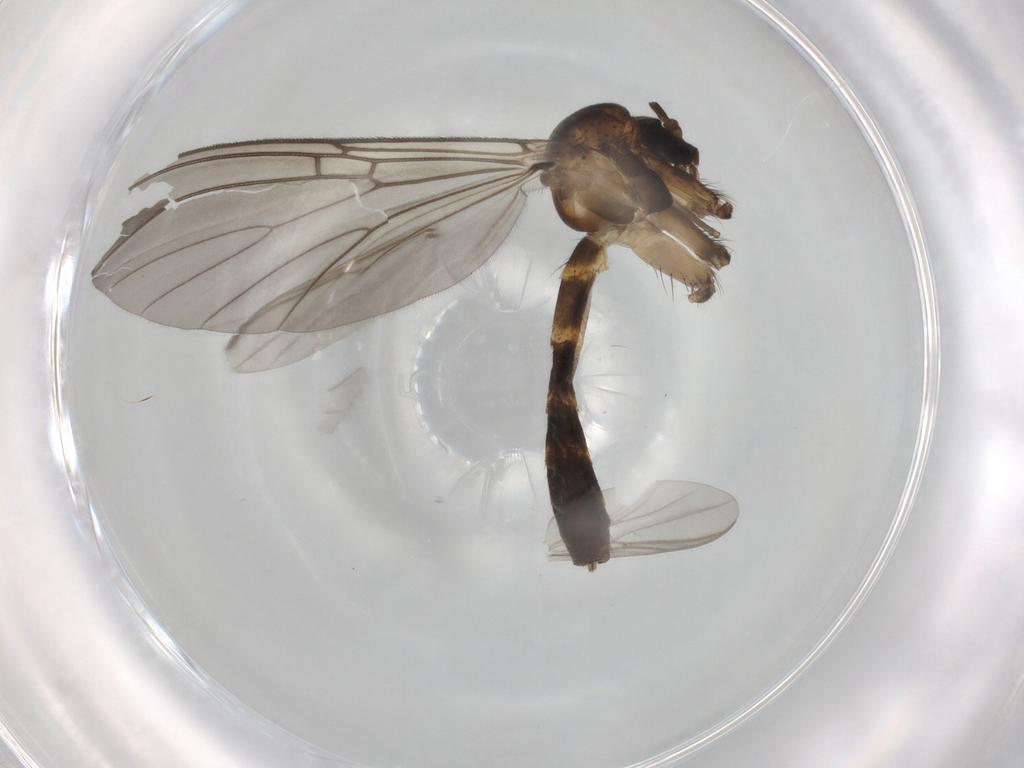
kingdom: Animalia
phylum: Arthropoda
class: Insecta
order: Diptera
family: Mycetophilidae
